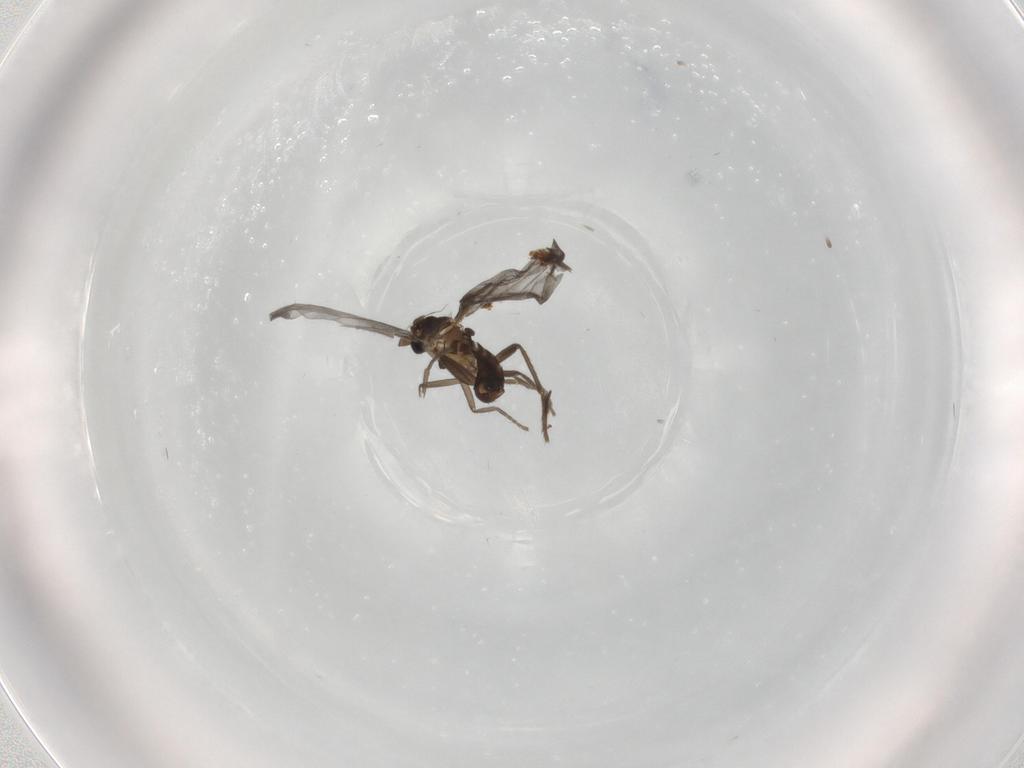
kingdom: Animalia
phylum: Arthropoda
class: Insecta
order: Diptera
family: Phoridae
